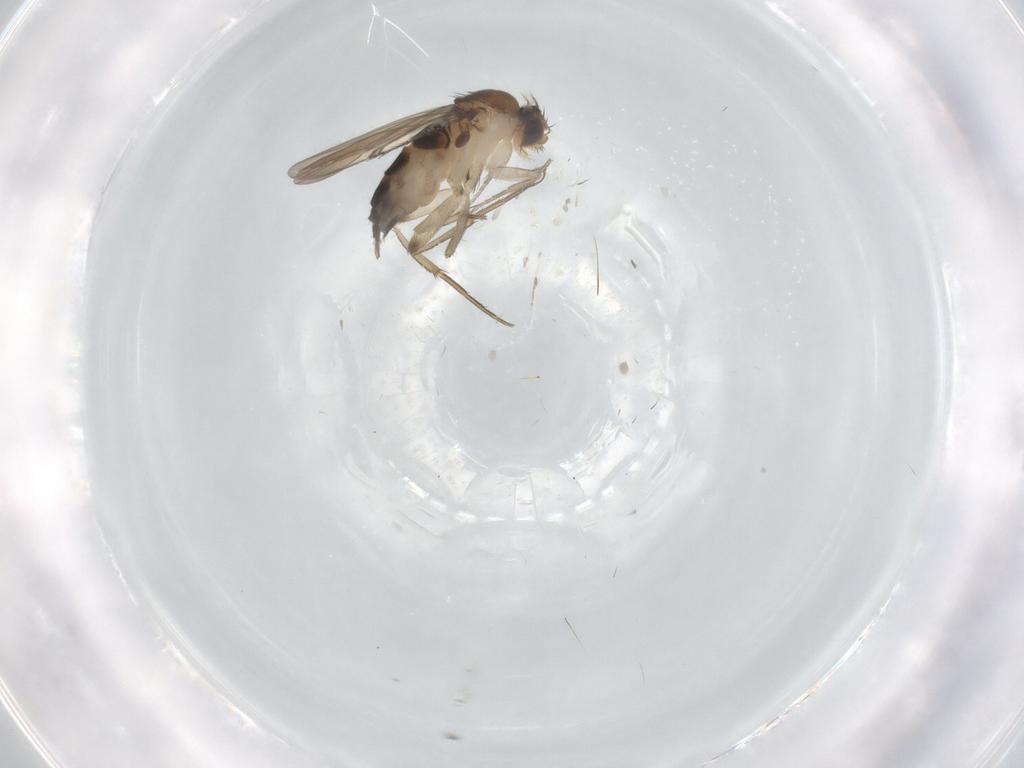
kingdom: Animalia
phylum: Arthropoda
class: Insecta
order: Diptera
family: Phoridae
